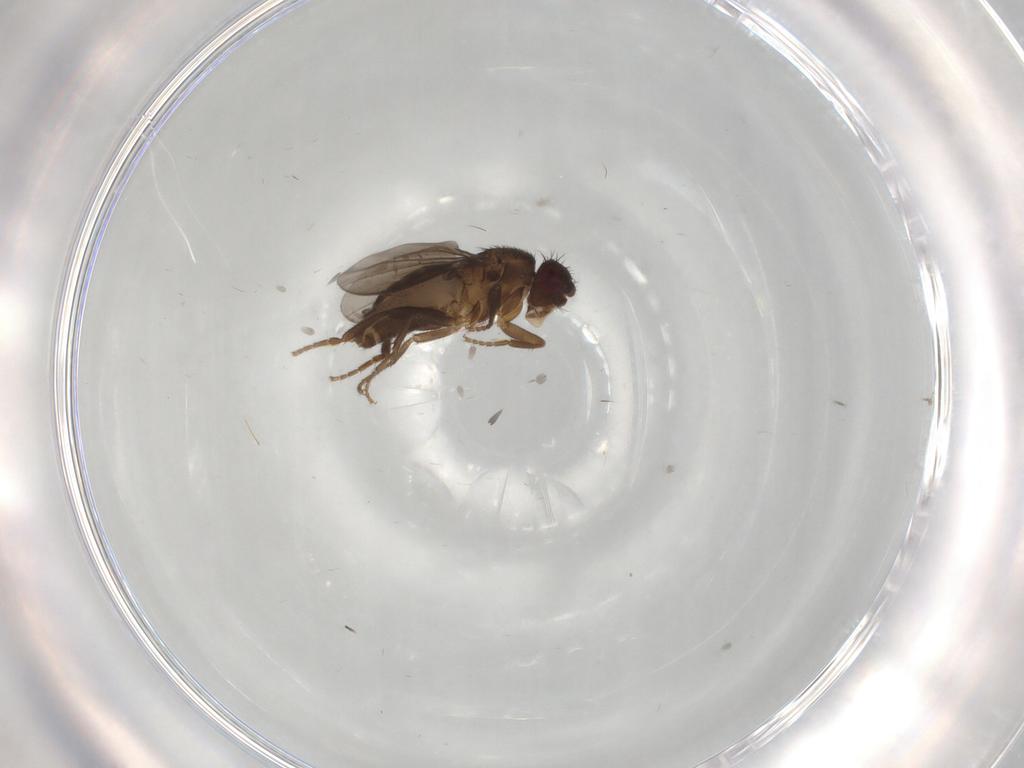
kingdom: Animalia
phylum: Arthropoda
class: Insecta
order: Diptera
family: Sphaeroceridae
